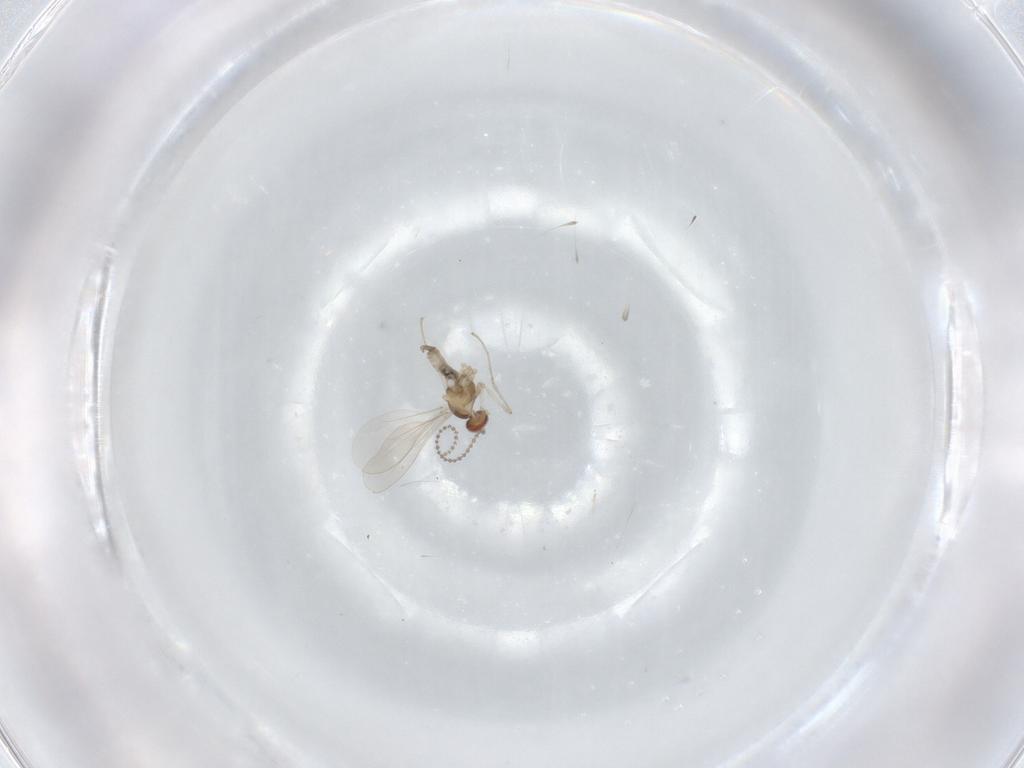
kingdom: Animalia
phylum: Arthropoda
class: Insecta
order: Diptera
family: Cecidomyiidae
